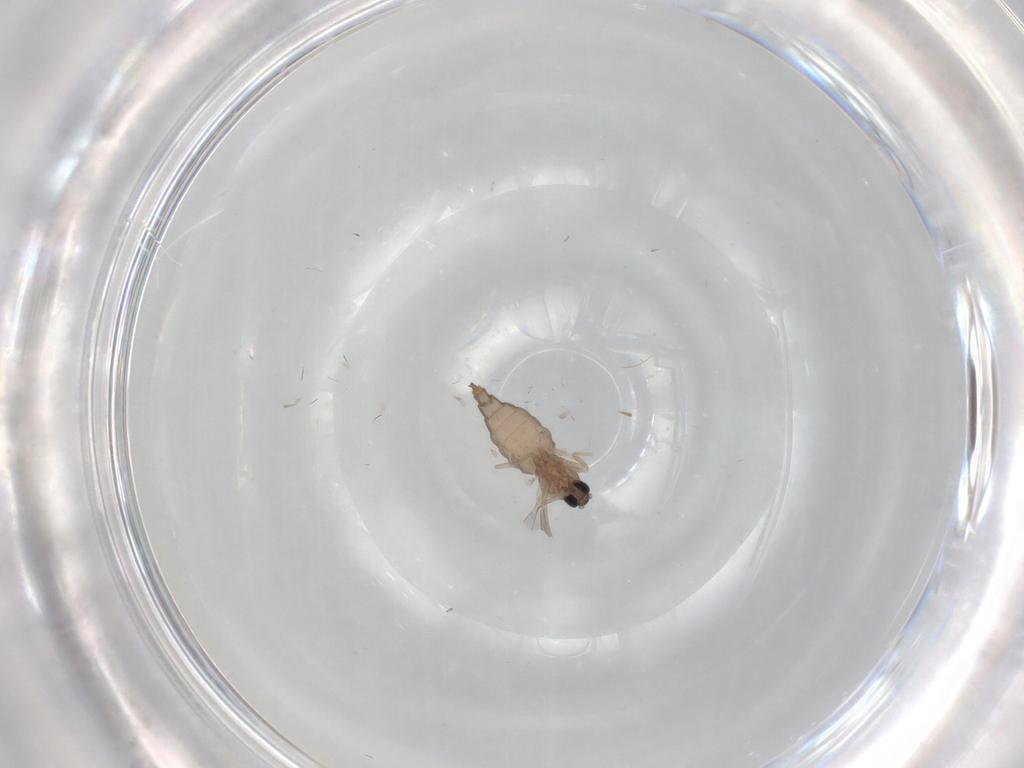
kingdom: Animalia
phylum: Arthropoda
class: Insecta
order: Diptera
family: Cecidomyiidae
